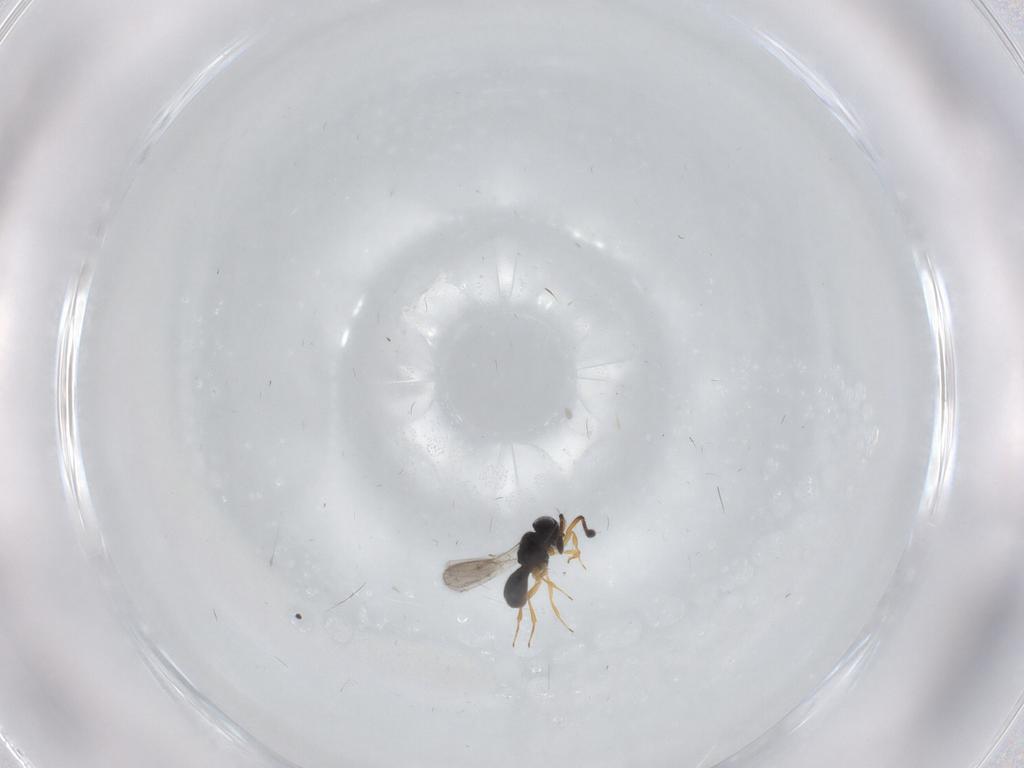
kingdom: Animalia
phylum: Arthropoda
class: Insecta
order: Hymenoptera
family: Scelionidae
